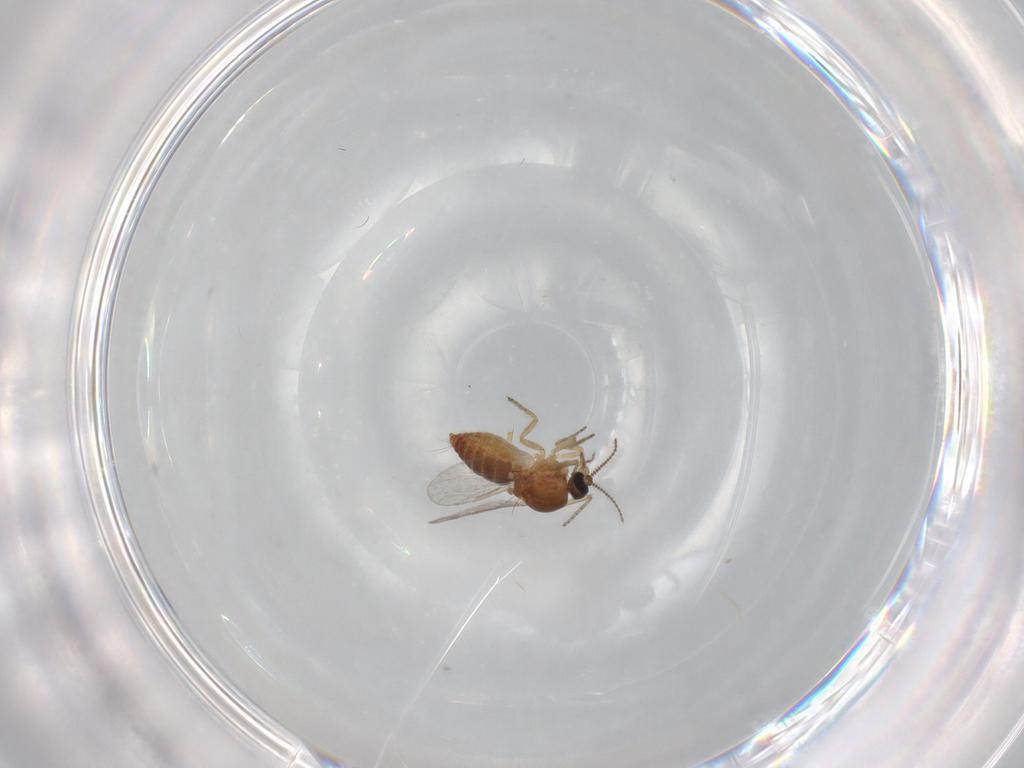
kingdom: Animalia
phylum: Arthropoda
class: Insecta
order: Diptera
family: Ceratopogonidae
